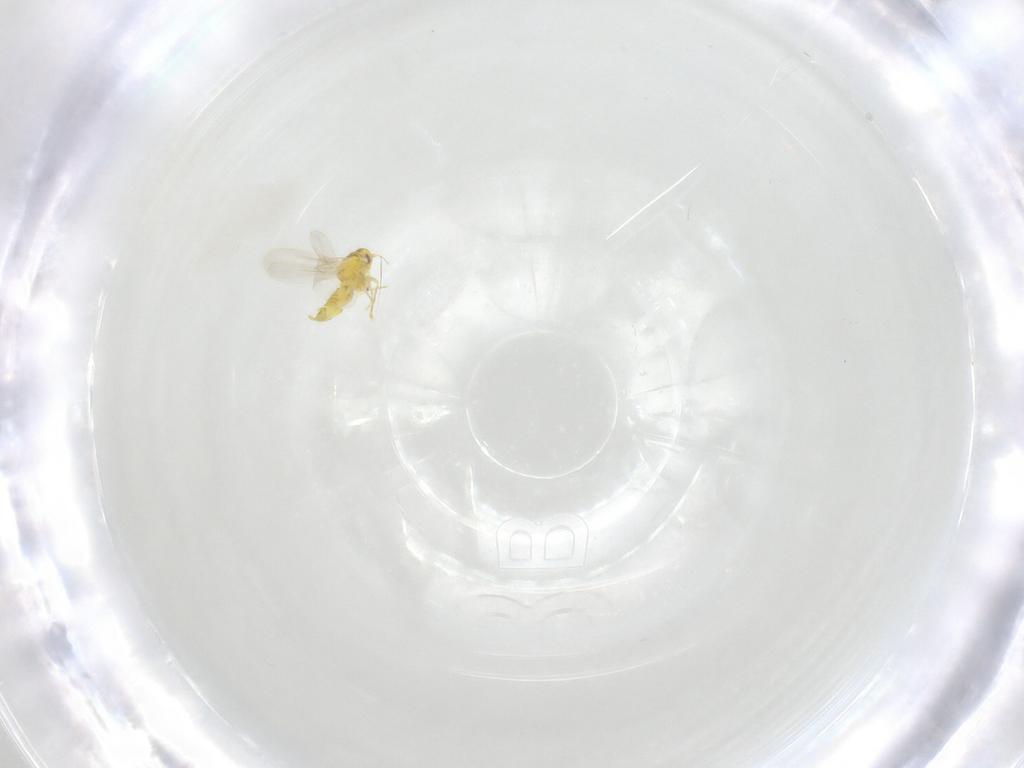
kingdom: Animalia
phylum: Arthropoda
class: Insecta
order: Hemiptera
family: Aleyrodidae
